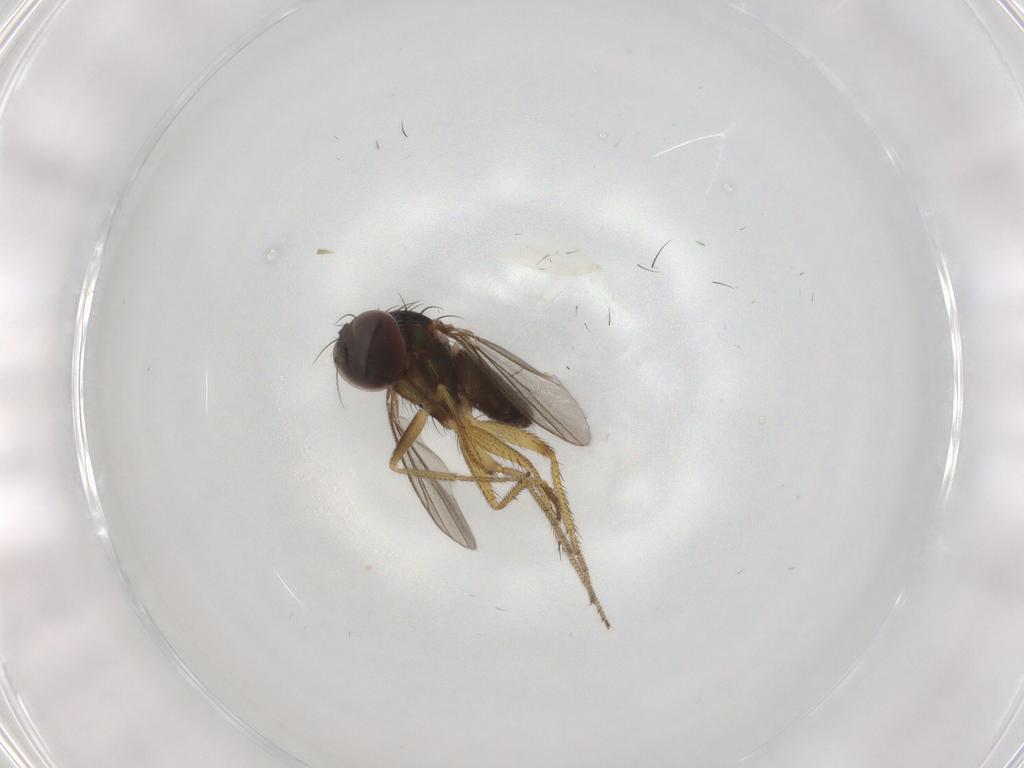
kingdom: Animalia
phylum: Arthropoda
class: Insecta
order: Diptera
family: Dolichopodidae
